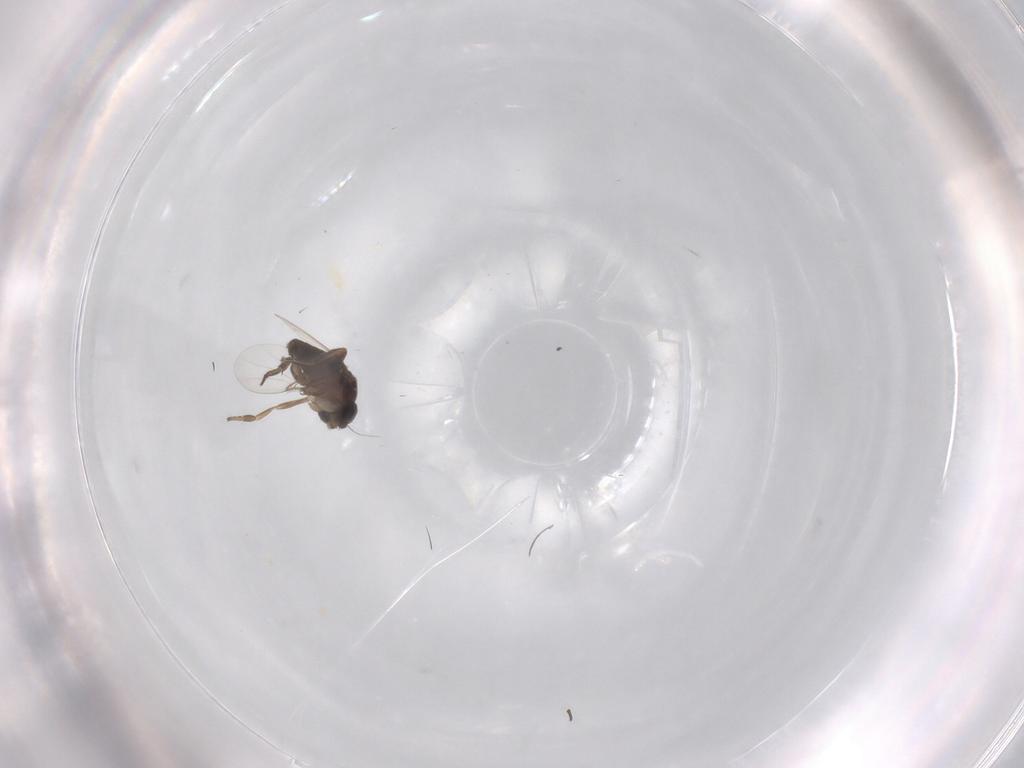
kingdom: Animalia
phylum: Arthropoda
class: Insecta
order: Diptera
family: Phoridae
